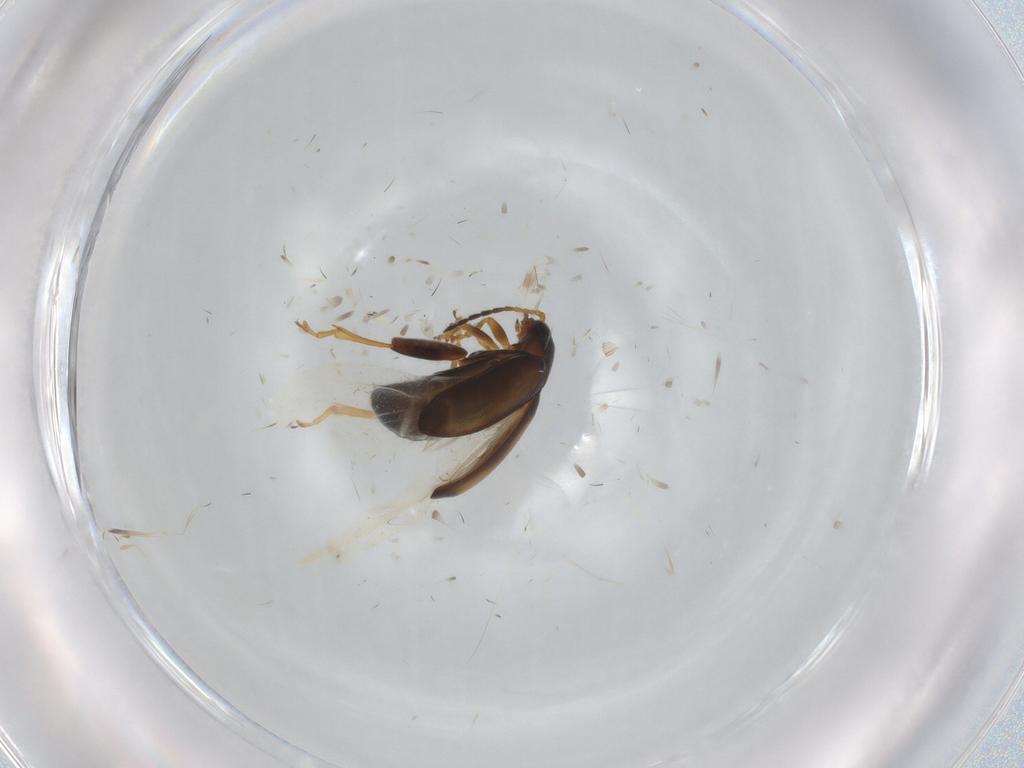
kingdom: Animalia
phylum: Arthropoda
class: Insecta
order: Coleoptera
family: Chrysomelidae
